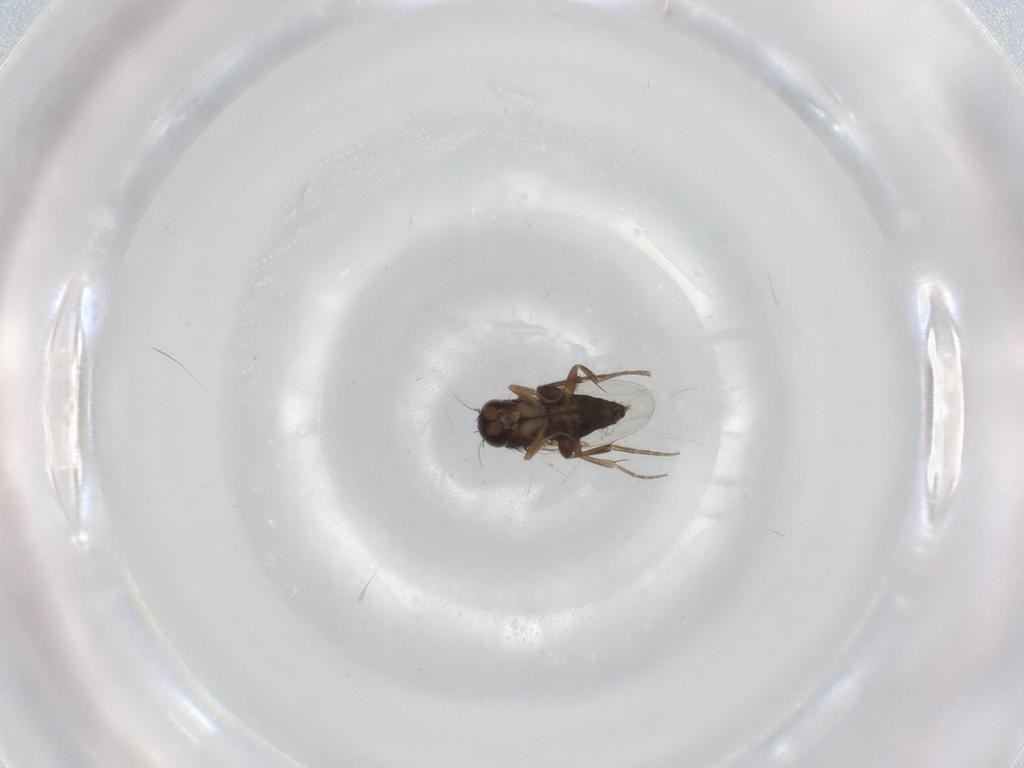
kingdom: Animalia
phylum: Arthropoda
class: Insecta
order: Diptera
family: Phoridae
